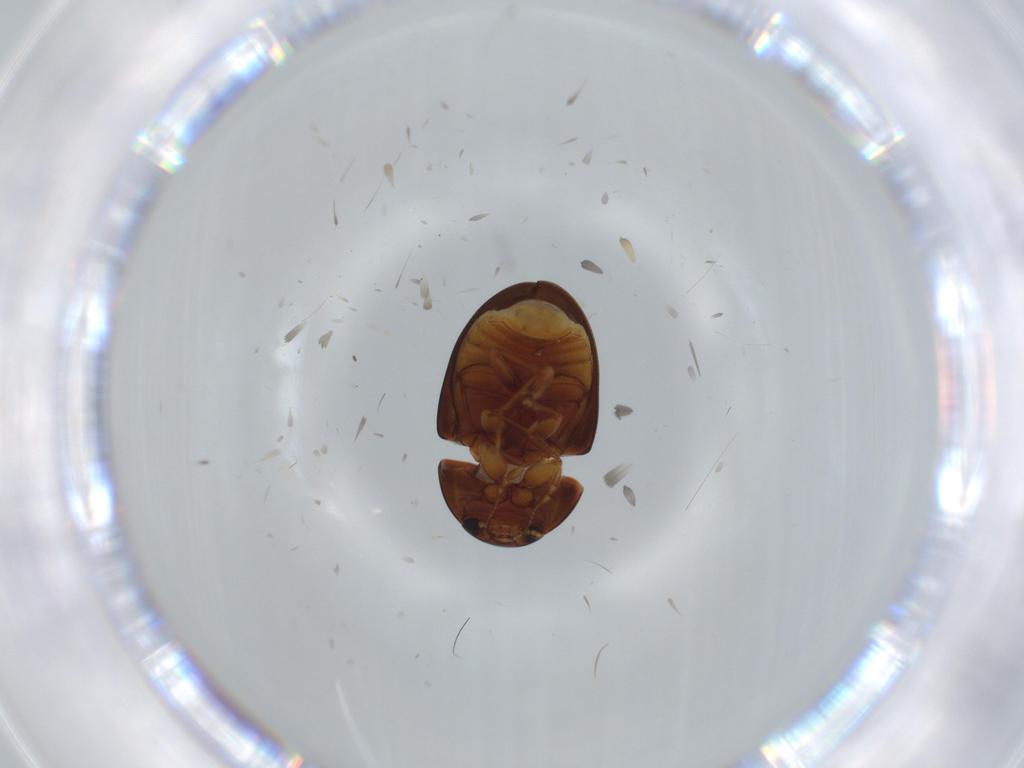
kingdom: Animalia
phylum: Arthropoda
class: Insecta
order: Coleoptera
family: Phalacridae
